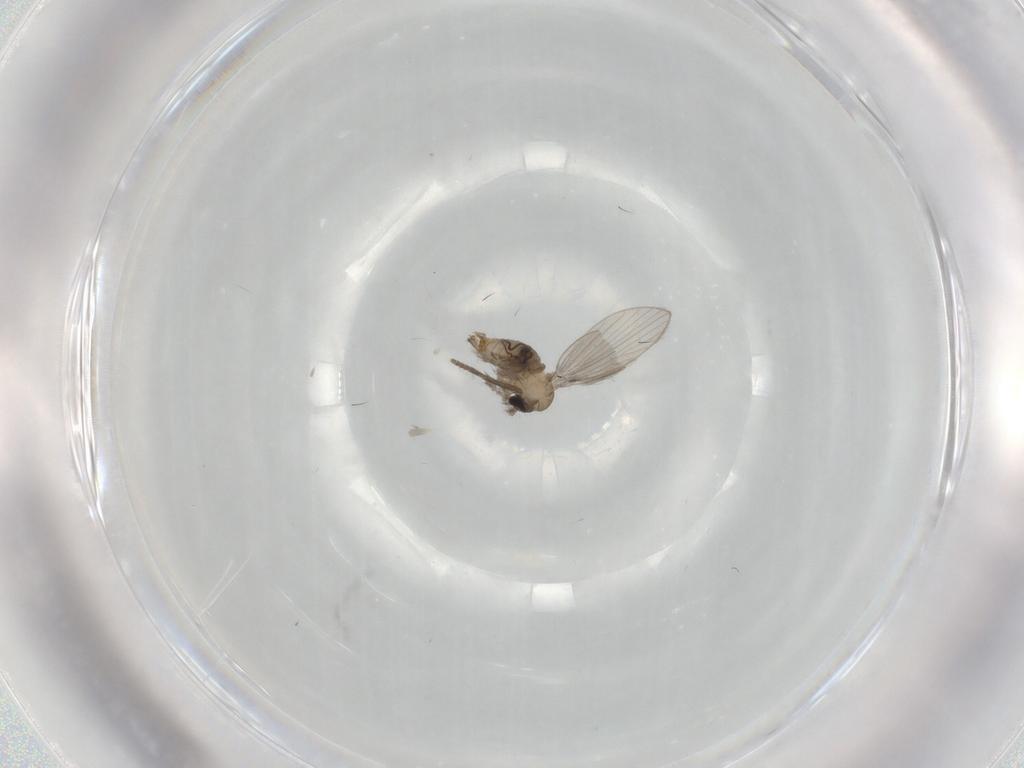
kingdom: Animalia
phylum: Arthropoda
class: Insecta
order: Diptera
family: Psychodidae
